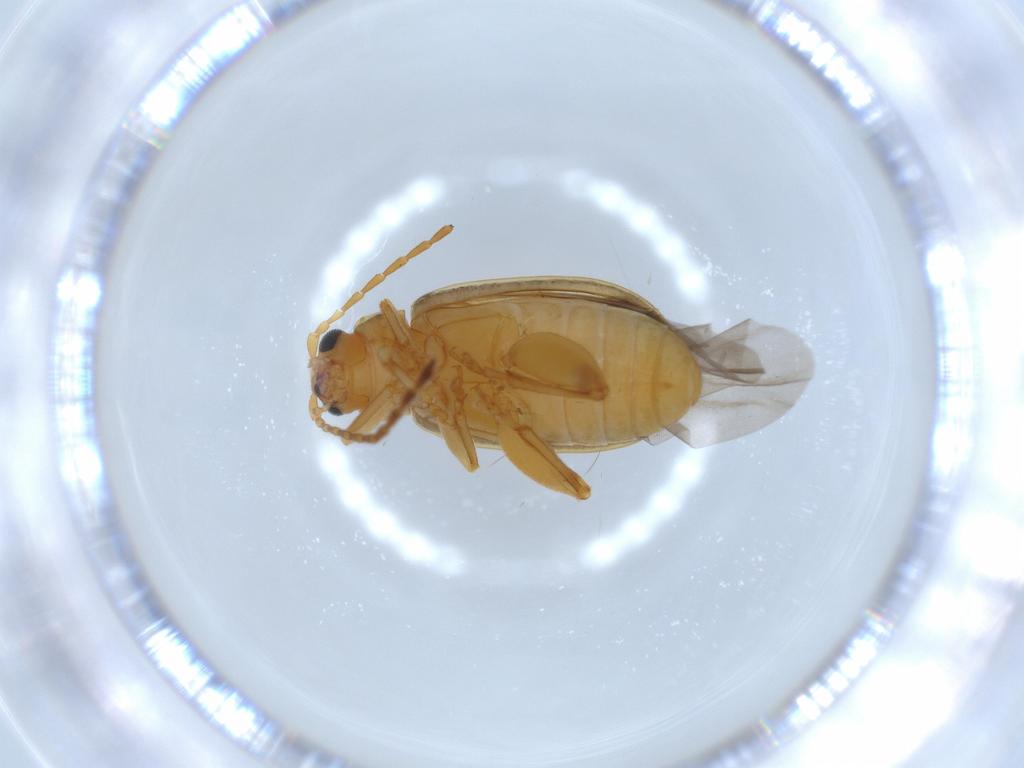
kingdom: Animalia
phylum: Arthropoda
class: Insecta
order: Coleoptera
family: Chrysomelidae
